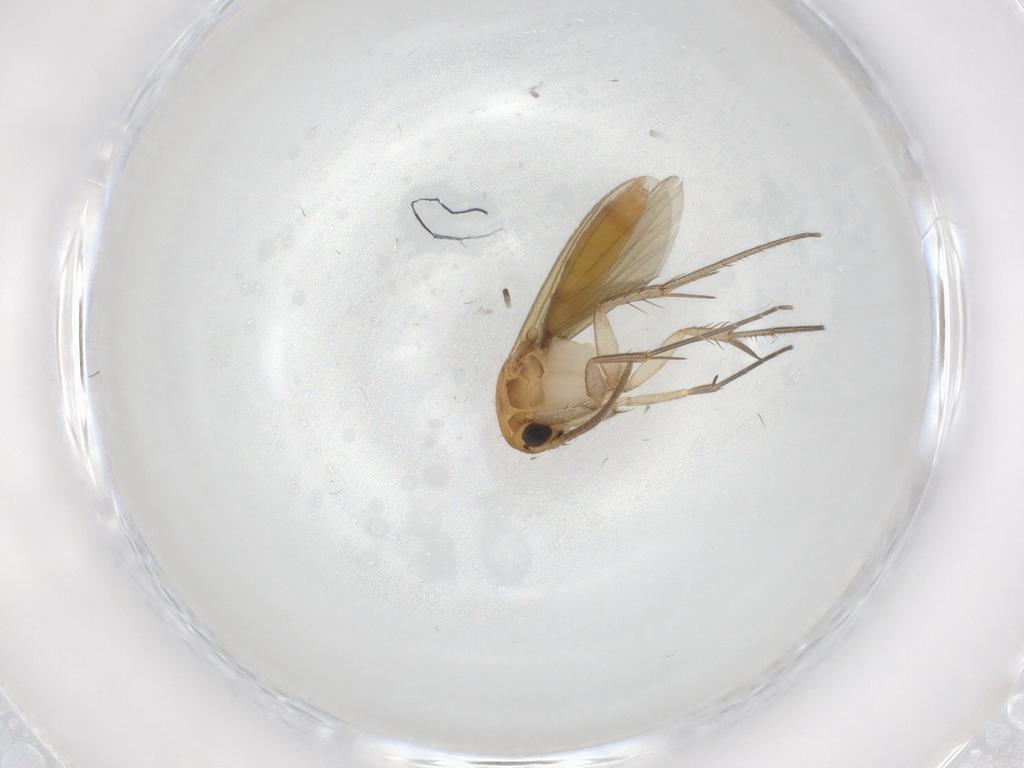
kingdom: Animalia
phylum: Arthropoda
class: Insecta
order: Diptera
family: Mycetophilidae
